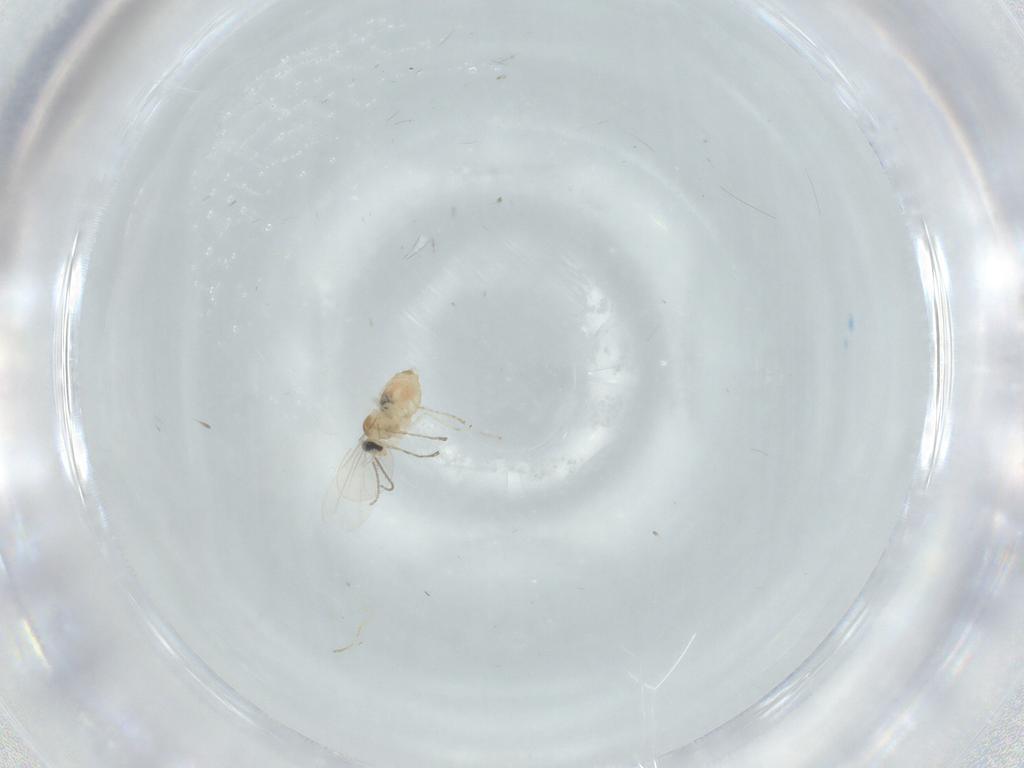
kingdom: Animalia
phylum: Arthropoda
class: Insecta
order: Diptera
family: Cecidomyiidae
